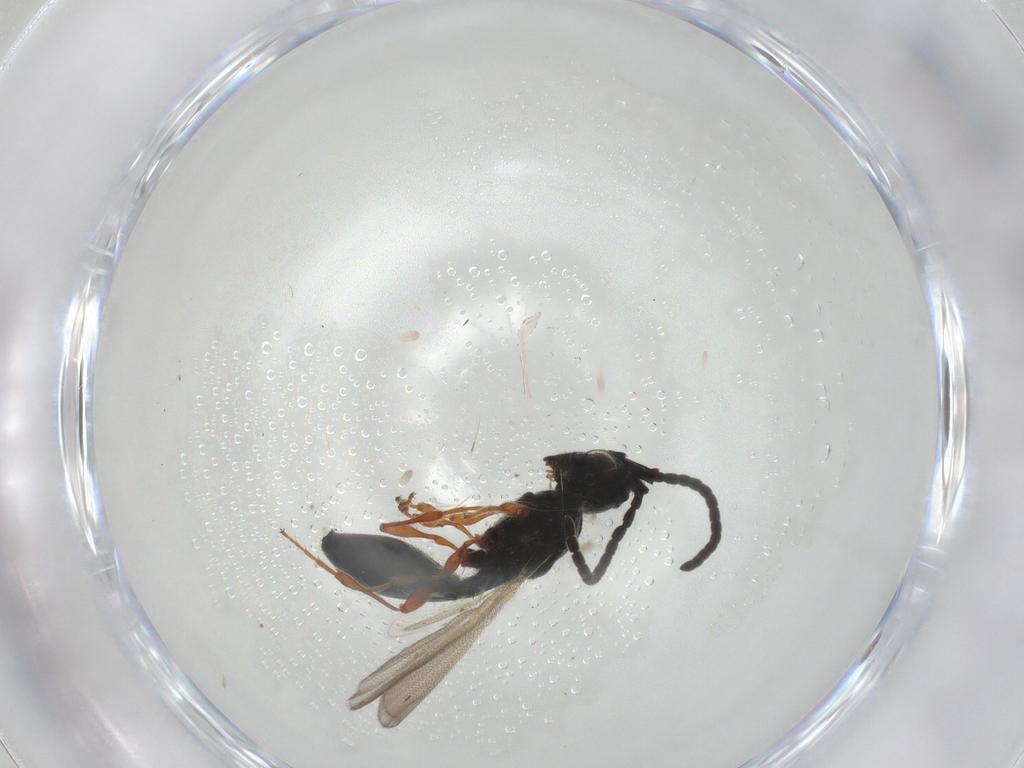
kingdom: Animalia
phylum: Arthropoda
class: Insecta
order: Hymenoptera
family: Diapriidae
